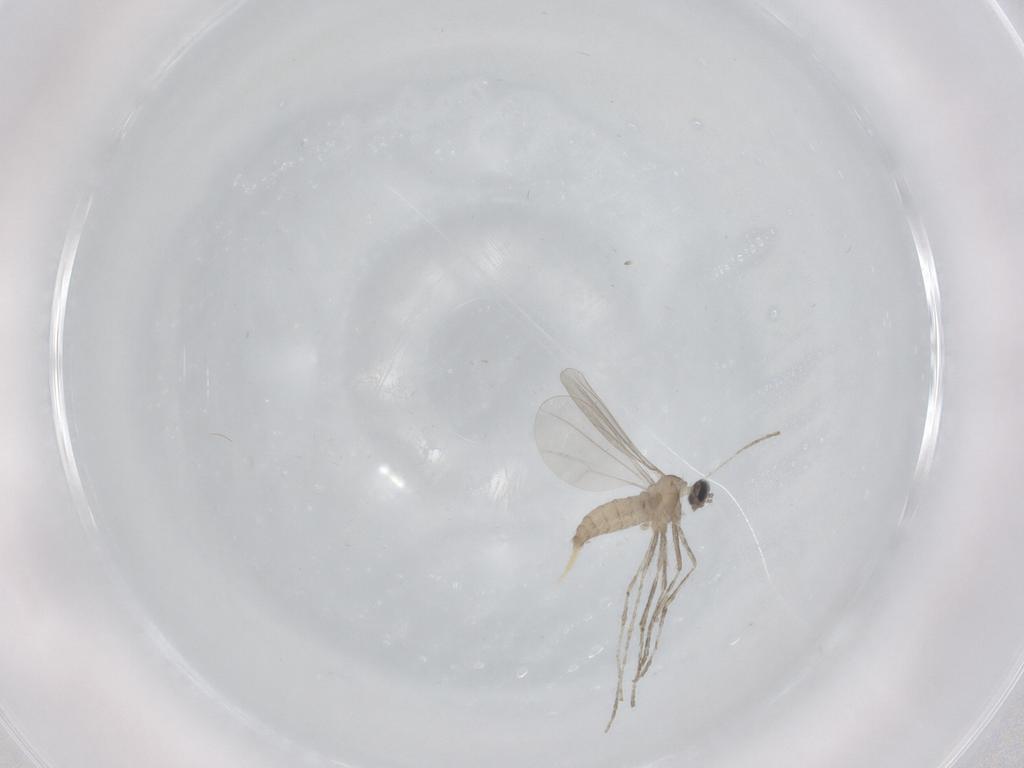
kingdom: Animalia
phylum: Arthropoda
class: Insecta
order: Diptera
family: Cecidomyiidae
